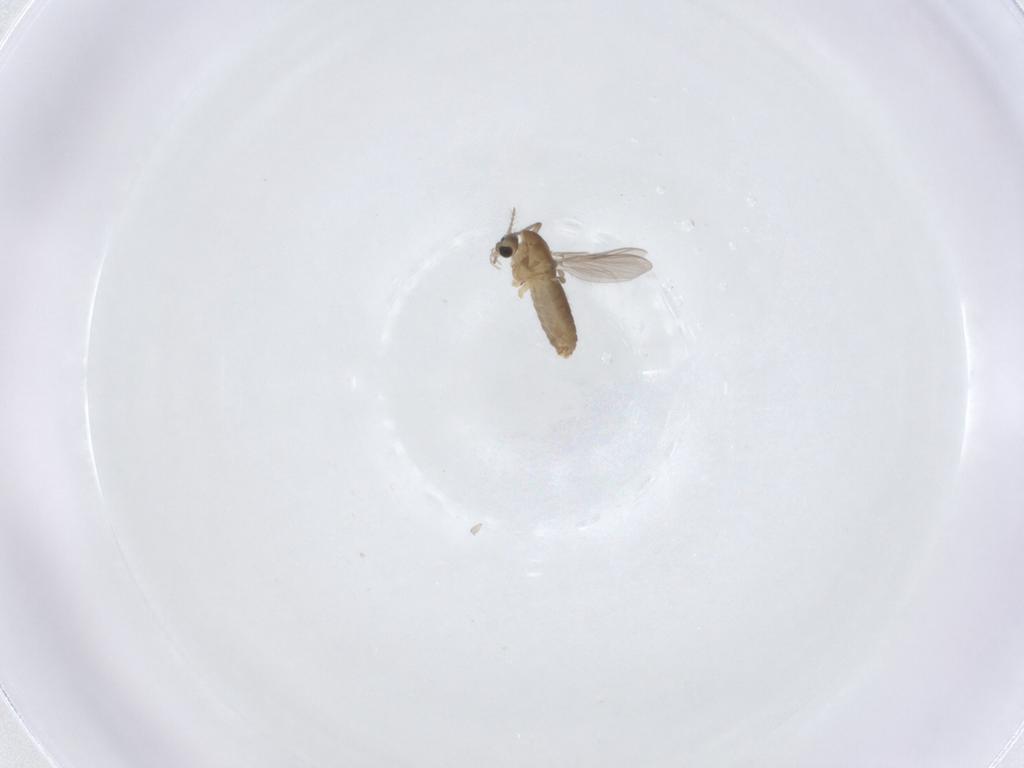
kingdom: Animalia
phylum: Arthropoda
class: Insecta
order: Diptera
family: Chironomidae
